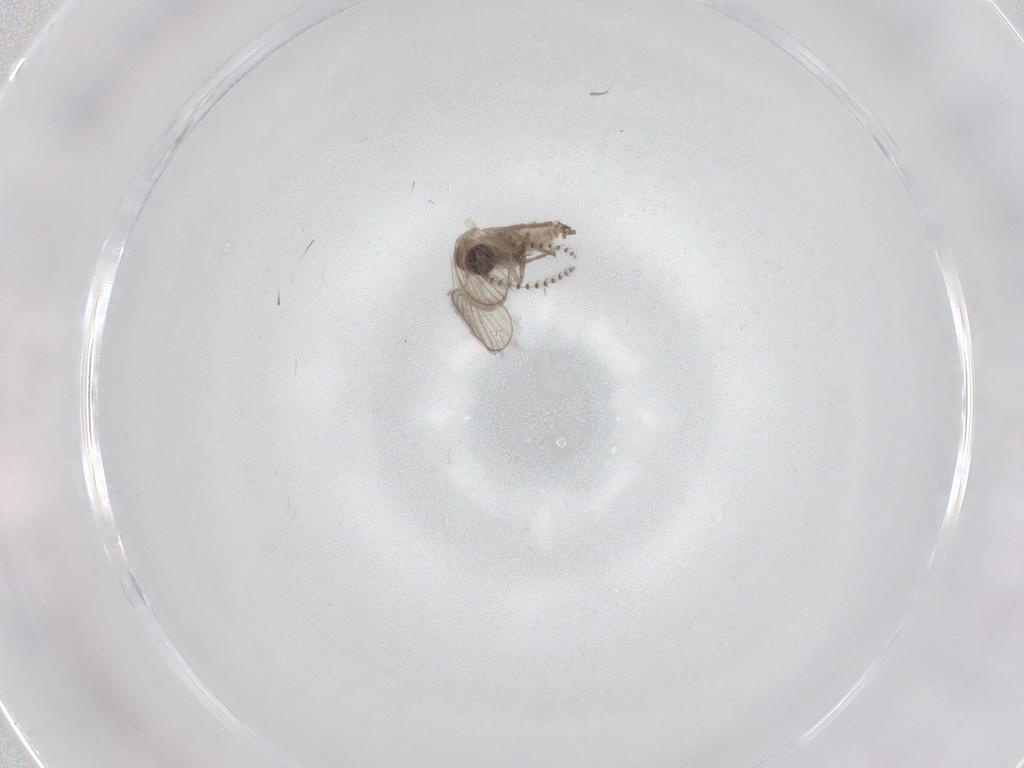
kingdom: Animalia
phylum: Arthropoda
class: Insecta
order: Diptera
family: Psychodidae
